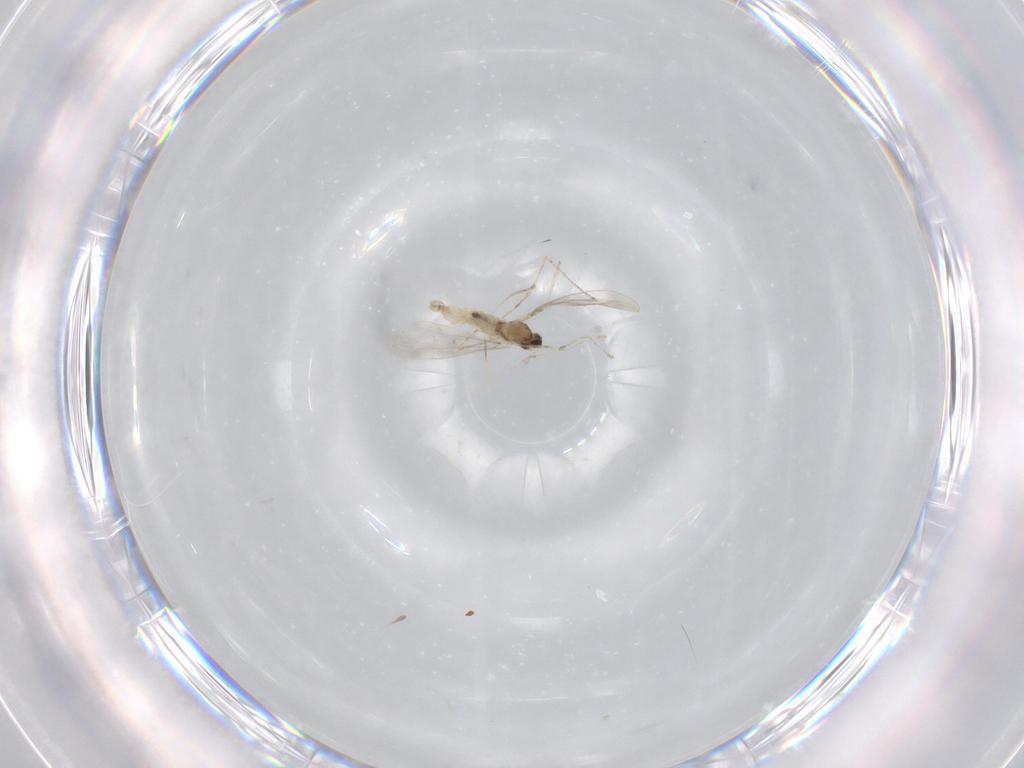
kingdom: Animalia
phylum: Arthropoda
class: Insecta
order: Diptera
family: Cecidomyiidae
